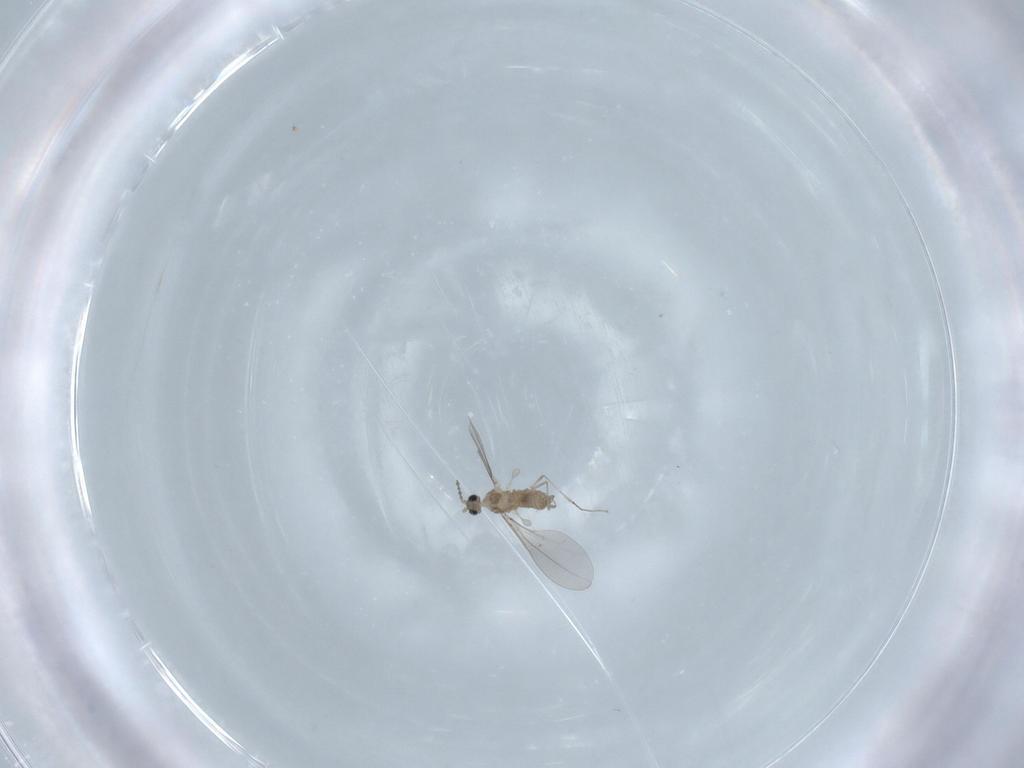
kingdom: Animalia
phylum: Arthropoda
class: Insecta
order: Diptera
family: Cecidomyiidae
